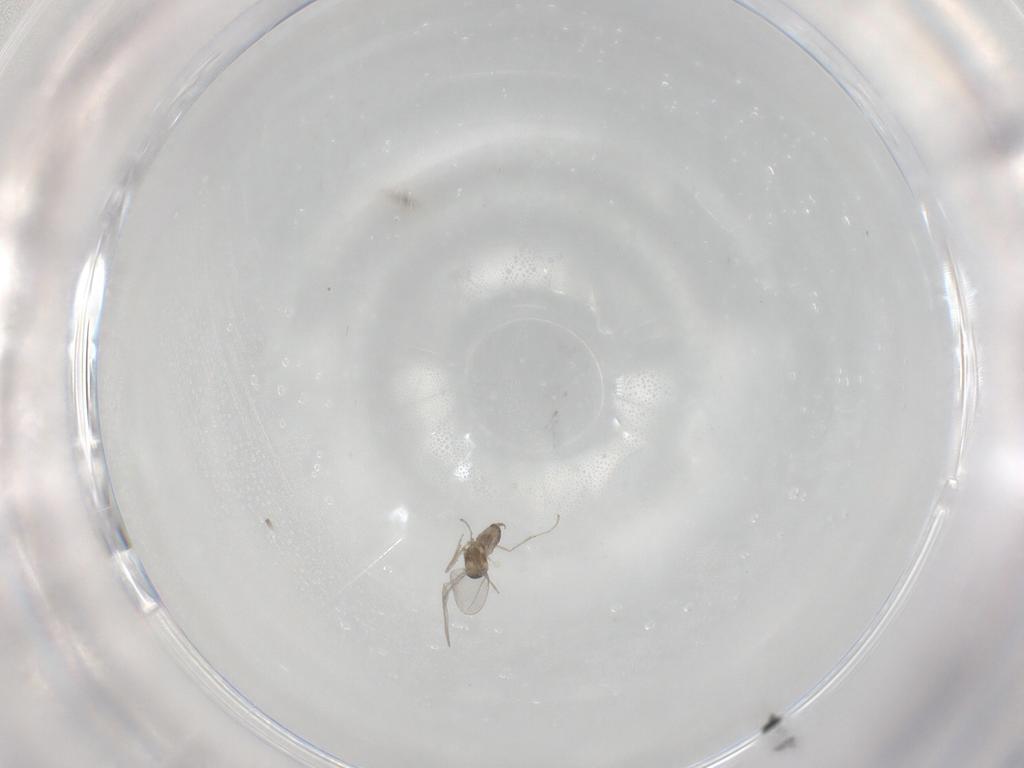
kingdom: Animalia
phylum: Arthropoda
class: Insecta
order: Diptera
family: Cecidomyiidae
